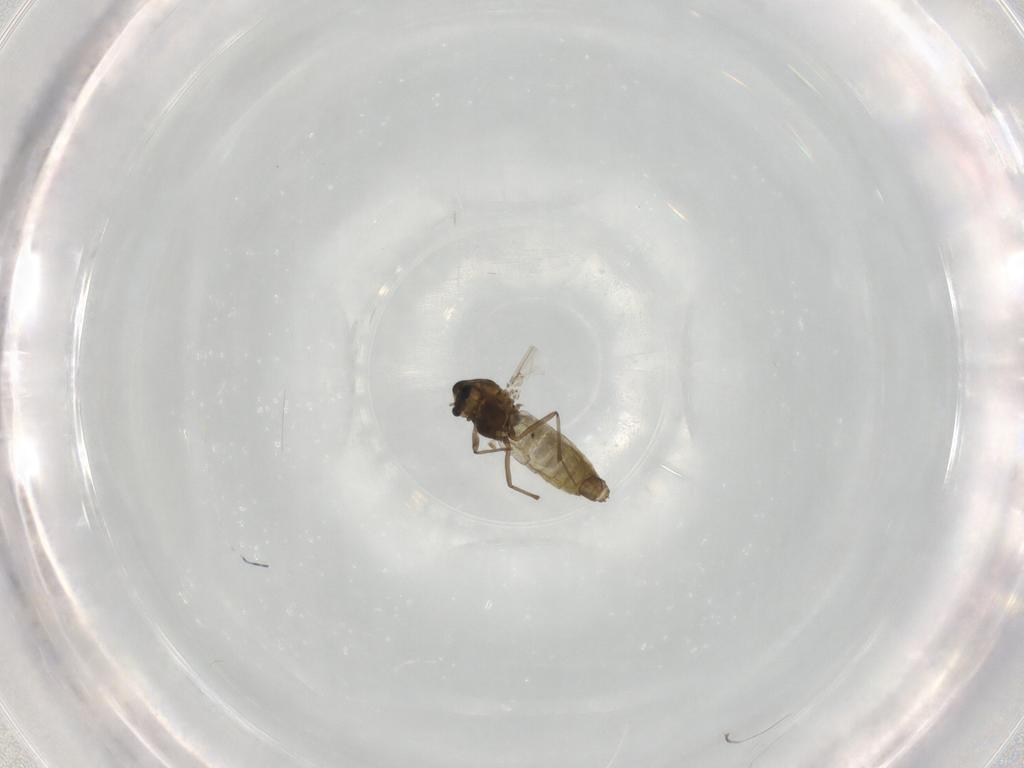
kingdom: Animalia
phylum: Arthropoda
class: Insecta
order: Diptera
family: Chironomidae
